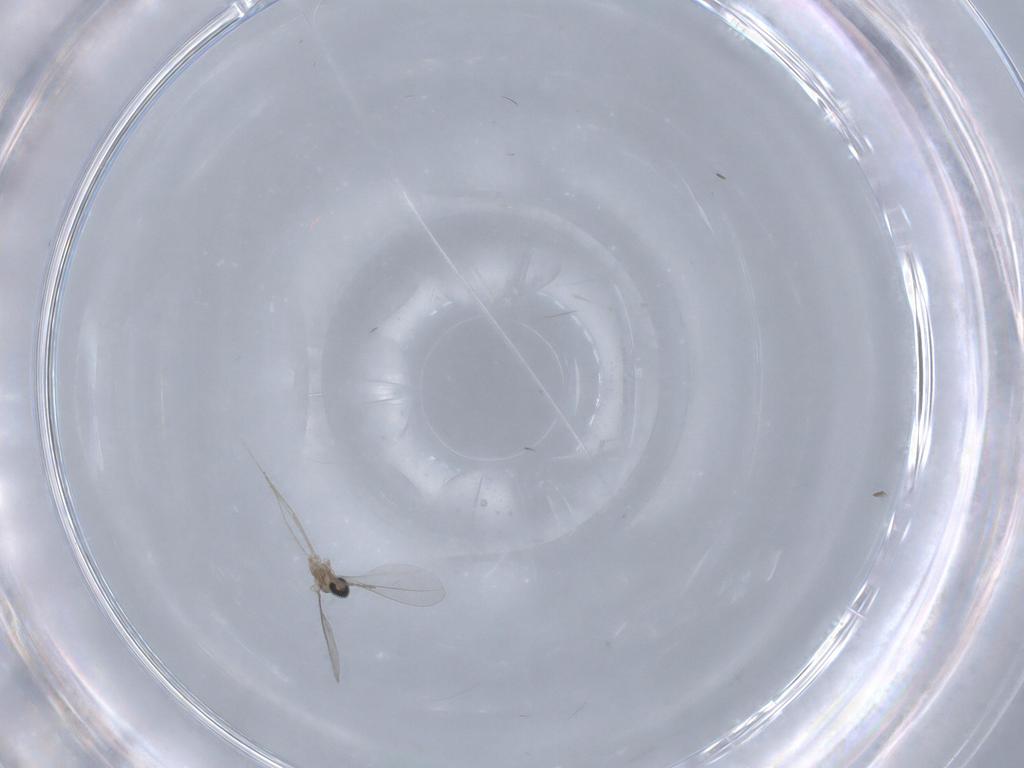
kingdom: Animalia
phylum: Arthropoda
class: Insecta
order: Diptera
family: Cecidomyiidae
